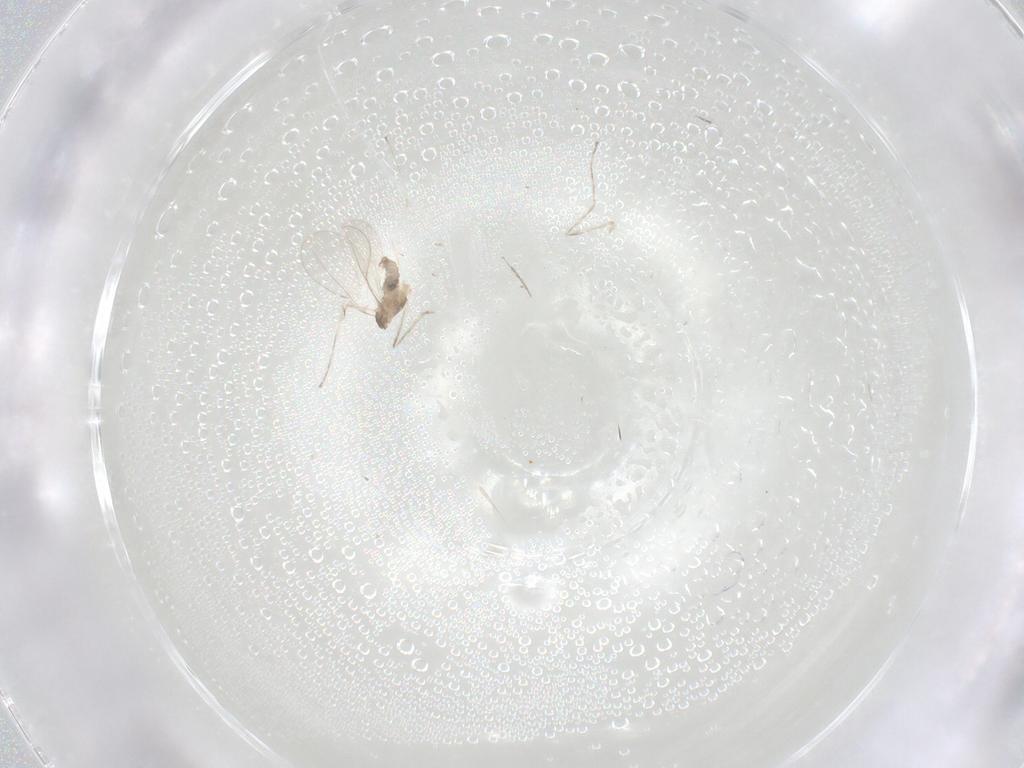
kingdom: Animalia
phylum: Arthropoda
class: Insecta
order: Diptera
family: Cecidomyiidae
